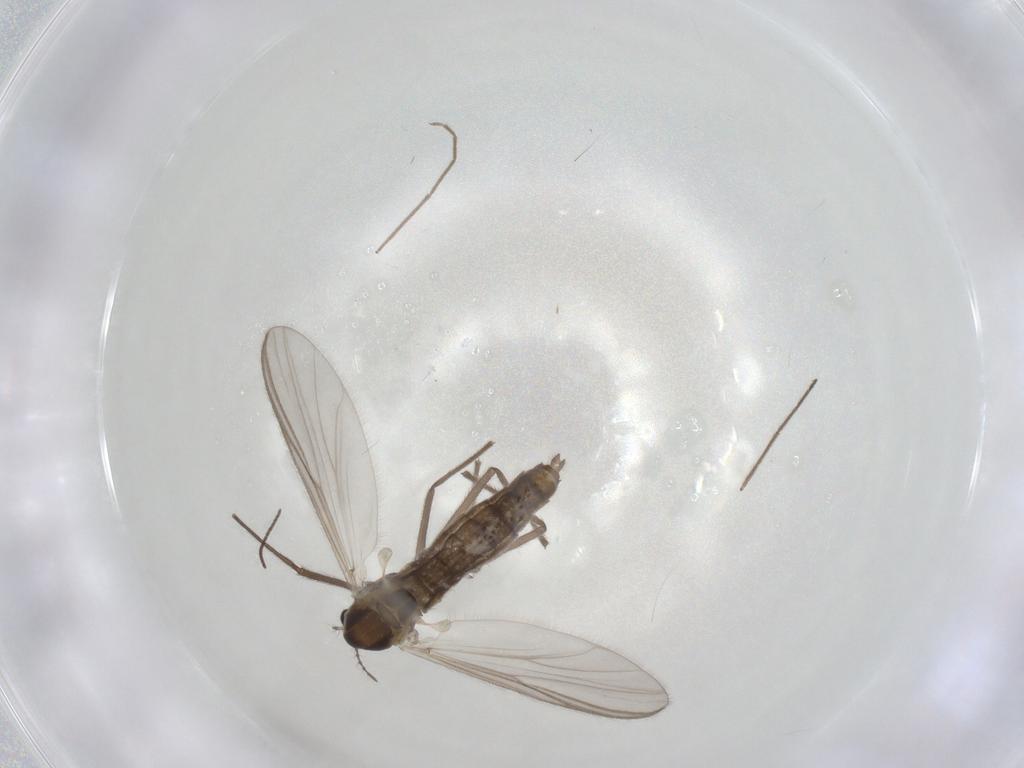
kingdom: Animalia
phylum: Arthropoda
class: Insecta
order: Diptera
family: Chironomidae
